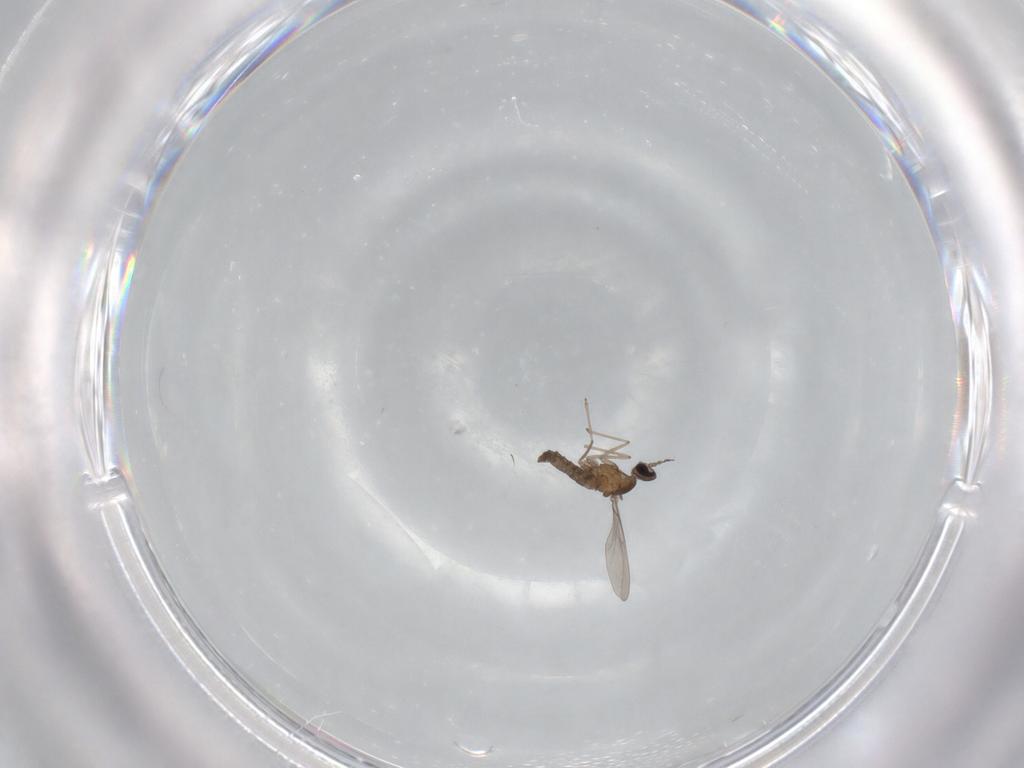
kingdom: Animalia
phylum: Arthropoda
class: Insecta
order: Diptera
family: Cecidomyiidae
